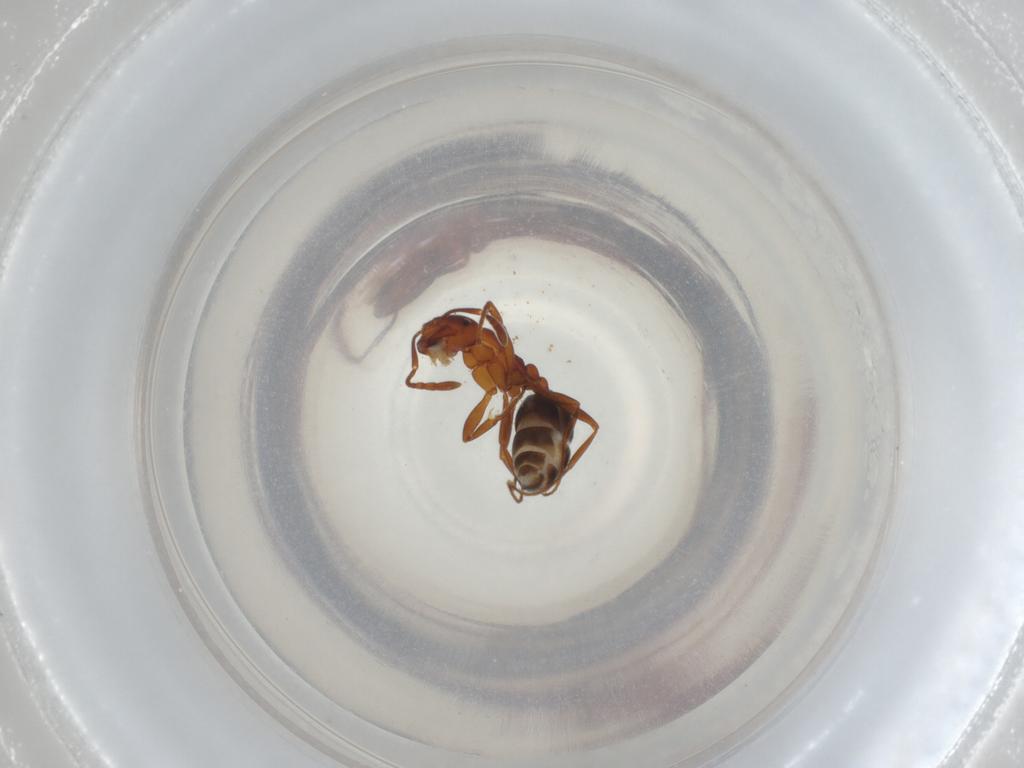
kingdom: Animalia
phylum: Arthropoda
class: Insecta
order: Hymenoptera
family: Formicidae
